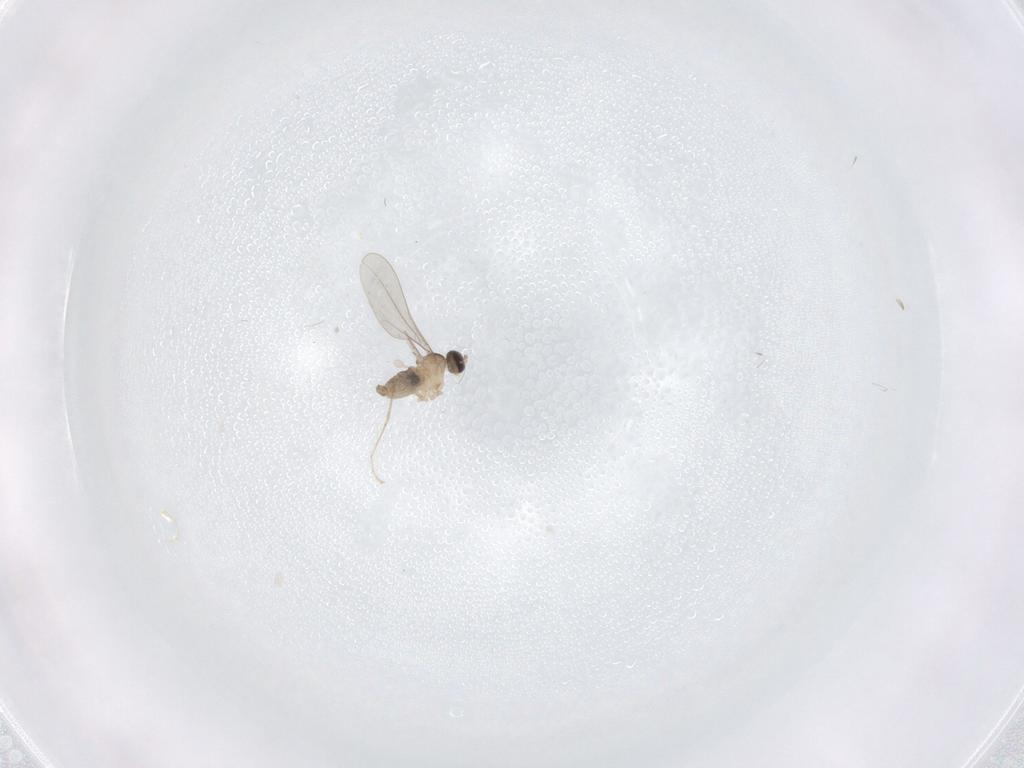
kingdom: Animalia
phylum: Arthropoda
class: Insecta
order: Diptera
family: Cecidomyiidae
